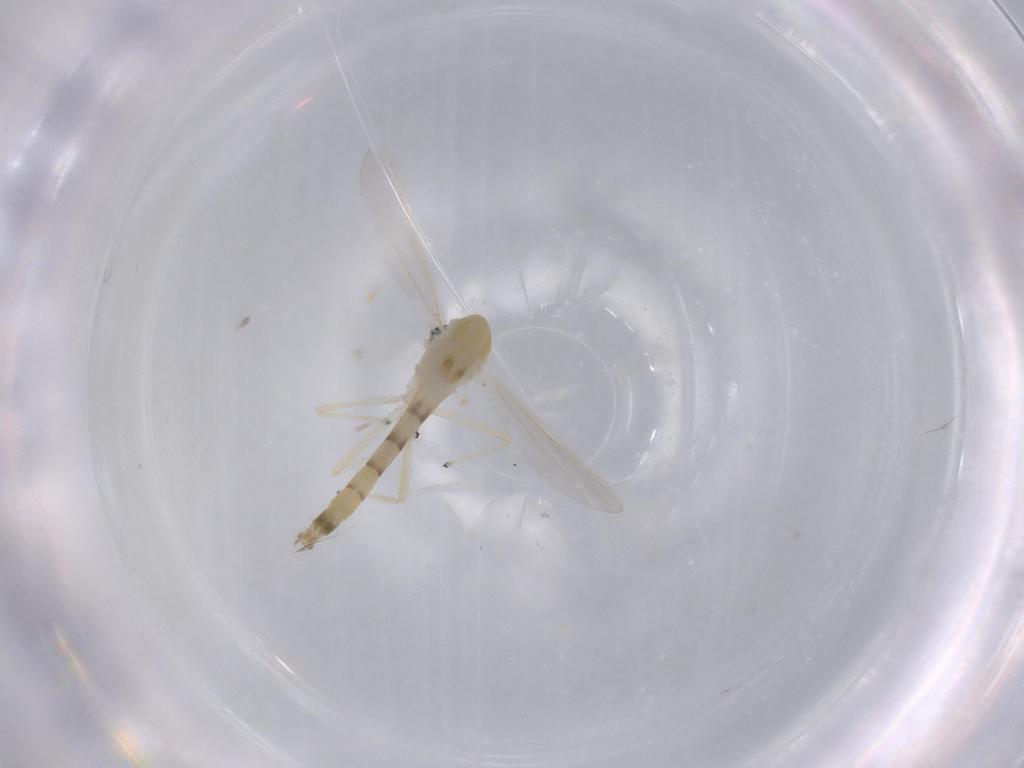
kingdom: Animalia
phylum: Arthropoda
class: Insecta
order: Diptera
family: Chironomidae
